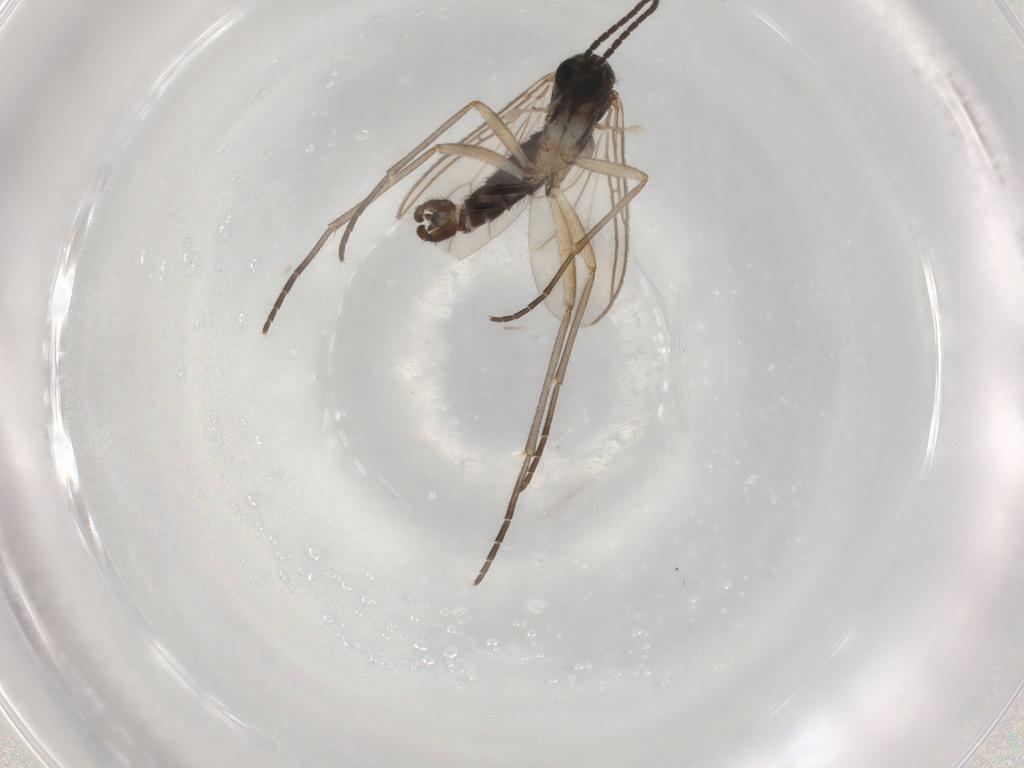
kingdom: Animalia
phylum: Arthropoda
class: Insecta
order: Diptera
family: Sciaridae
